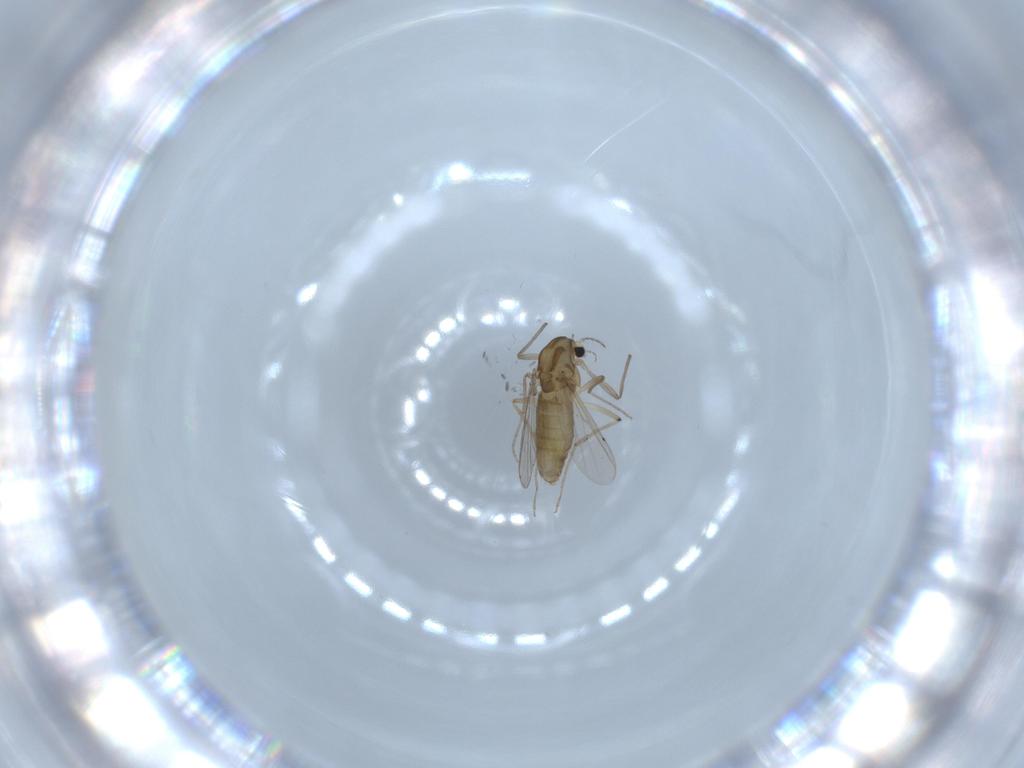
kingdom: Animalia
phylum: Arthropoda
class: Insecta
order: Diptera
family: Chironomidae
